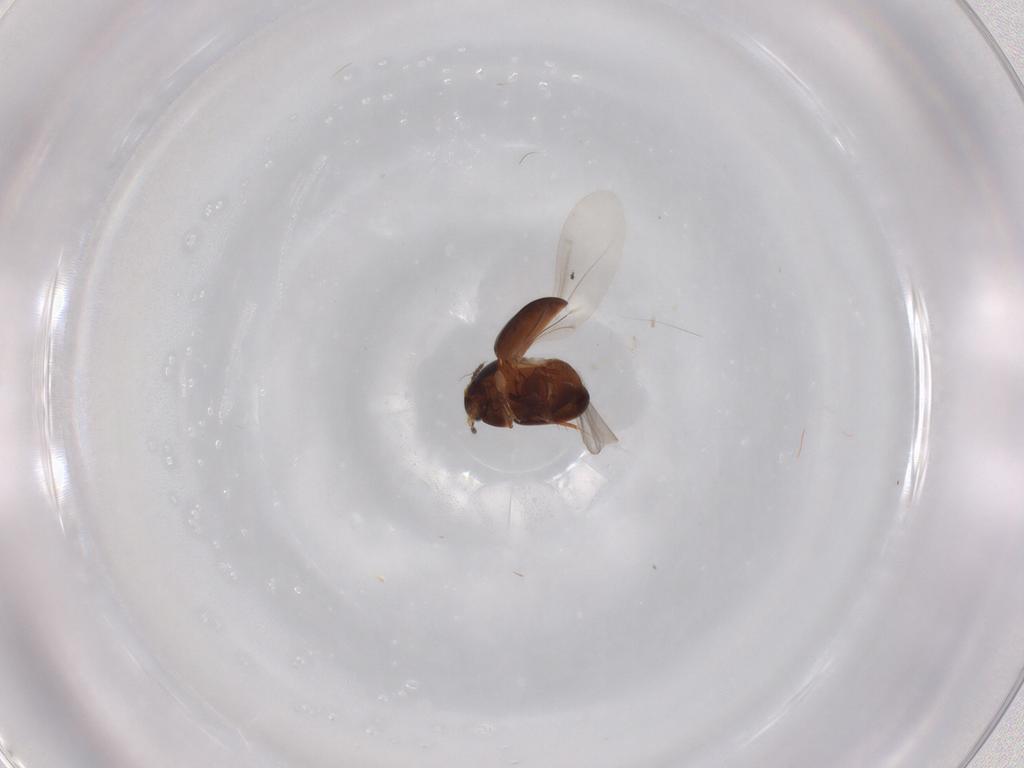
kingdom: Animalia
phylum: Arthropoda
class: Insecta
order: Coleoptera
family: Leiodidae
